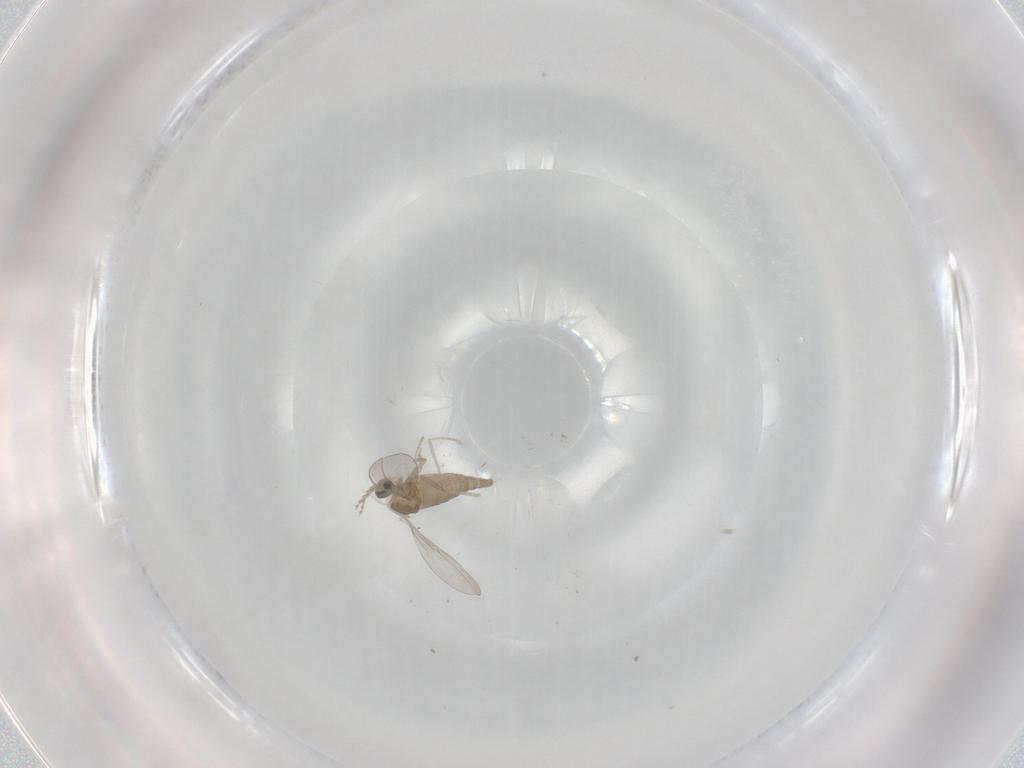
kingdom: Animalia
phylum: Arthropoda
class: Insecta
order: Diptera
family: Cecidomyiidae
